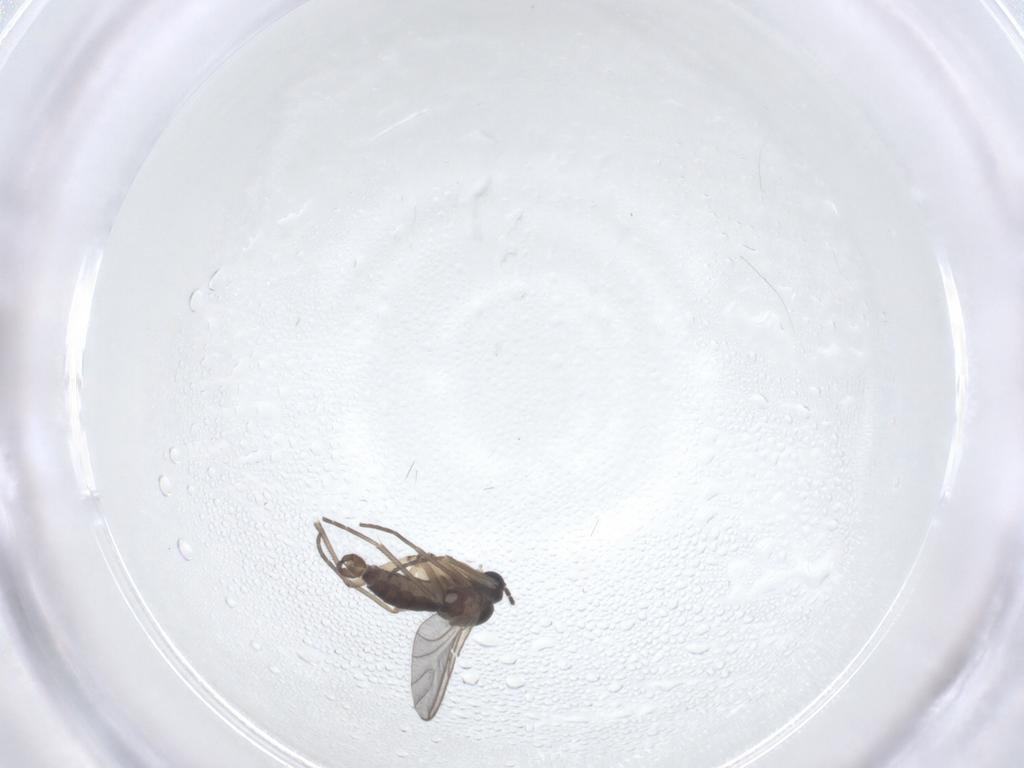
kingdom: Animalia
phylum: Arthropoda
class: Insecta
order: Diptera
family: Sciaridae
